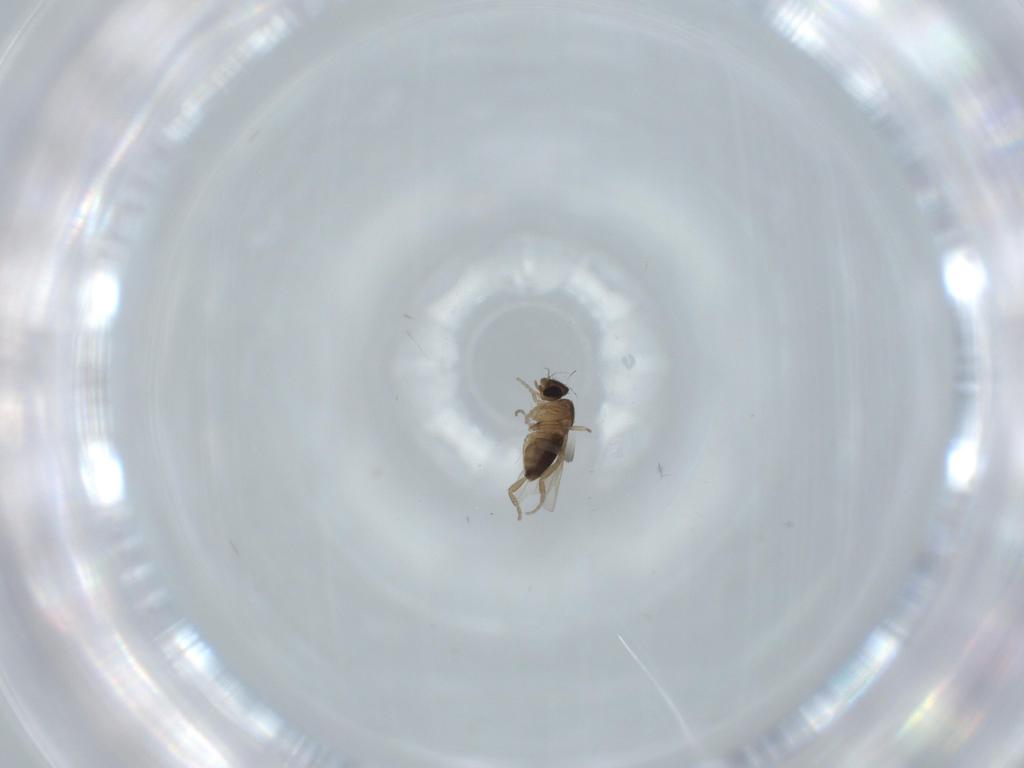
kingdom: Animalia
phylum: Arthropoda
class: Insecta
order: Diptera
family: Phoridae
